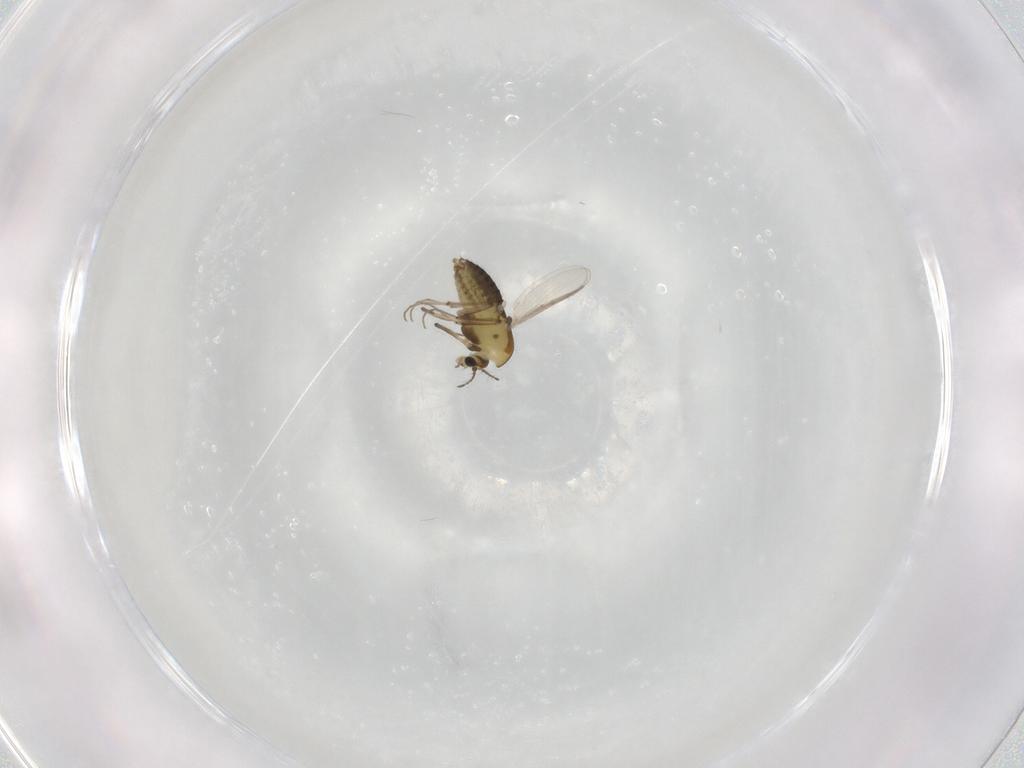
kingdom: Animalia
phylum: Arthropoda
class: Insecta
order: Diptera
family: Chironomidae
